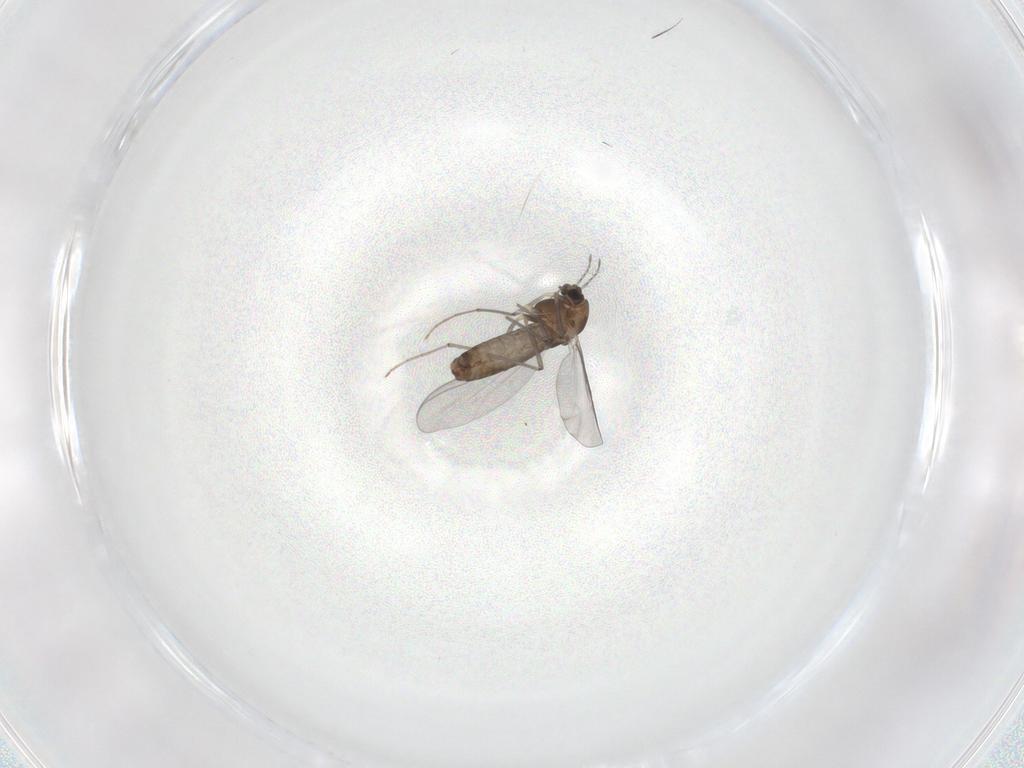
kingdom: Animalia
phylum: Arthropoda
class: Insecta
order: Diptera
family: Chironomidae
